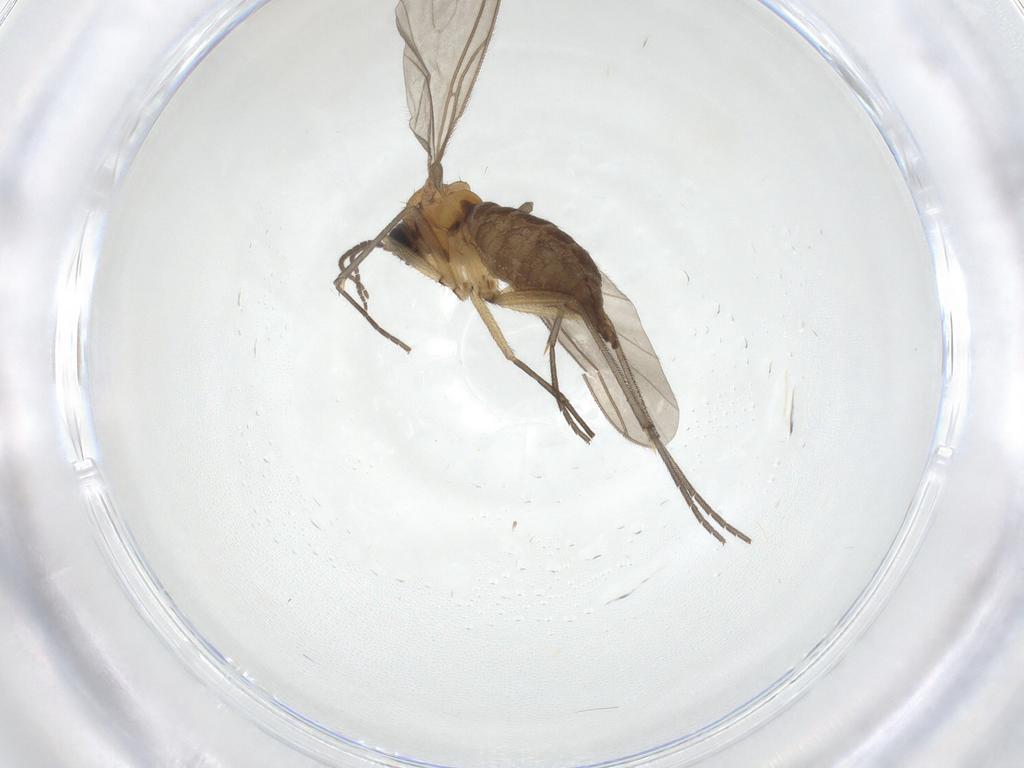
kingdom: Animalia
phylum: Arthropoda
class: Insecta
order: Diptera
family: Sciaridae
